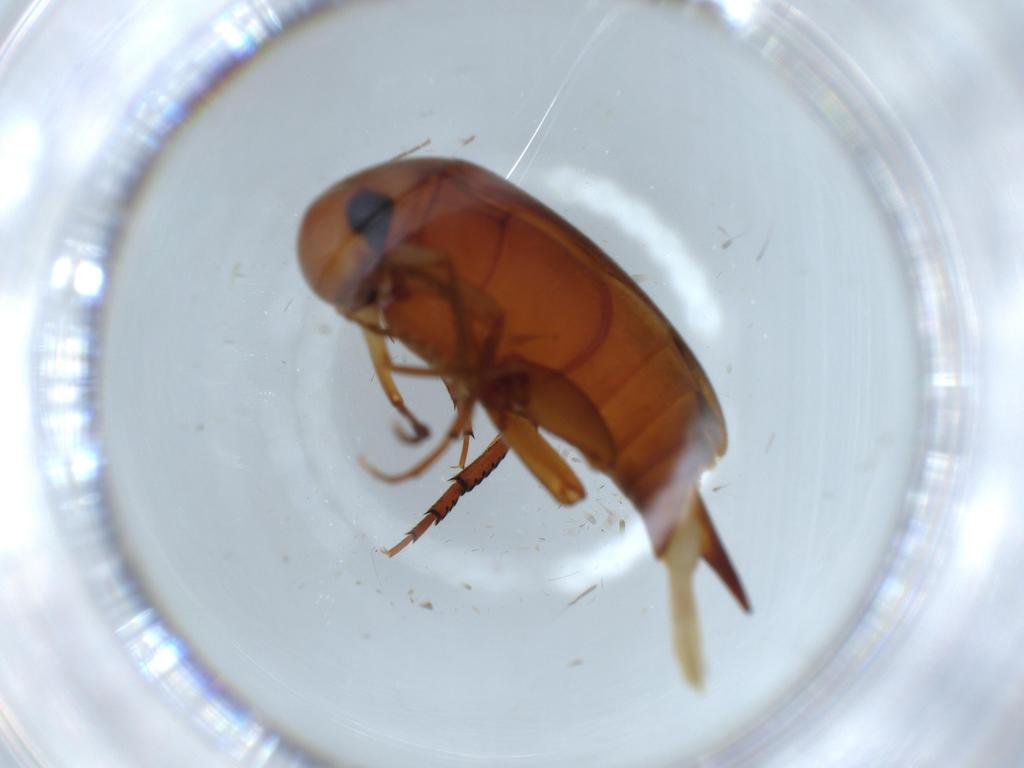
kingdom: Animalia
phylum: Arthropoda
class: Insecta
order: Coleoptera
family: Mordellidae
